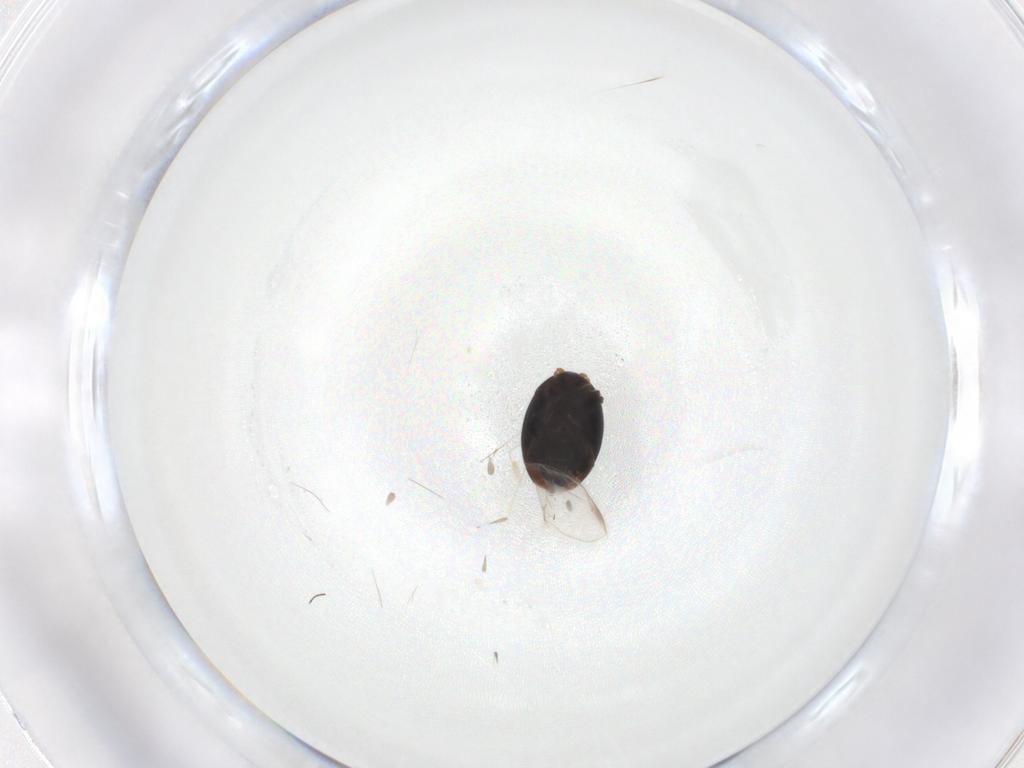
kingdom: Animalia
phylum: Arthropoda
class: Insecta
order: Coleoptera
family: Corylophidae
